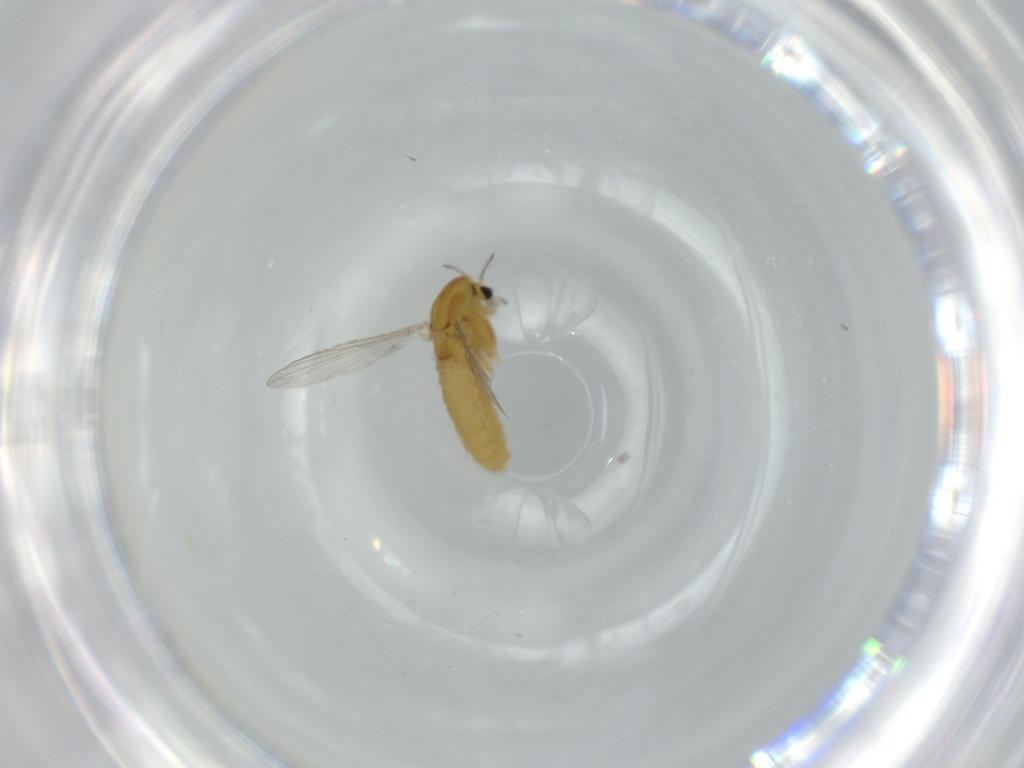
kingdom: Animalia
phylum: Arthropoda
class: Insecta
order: Diptera
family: Chironomidae
